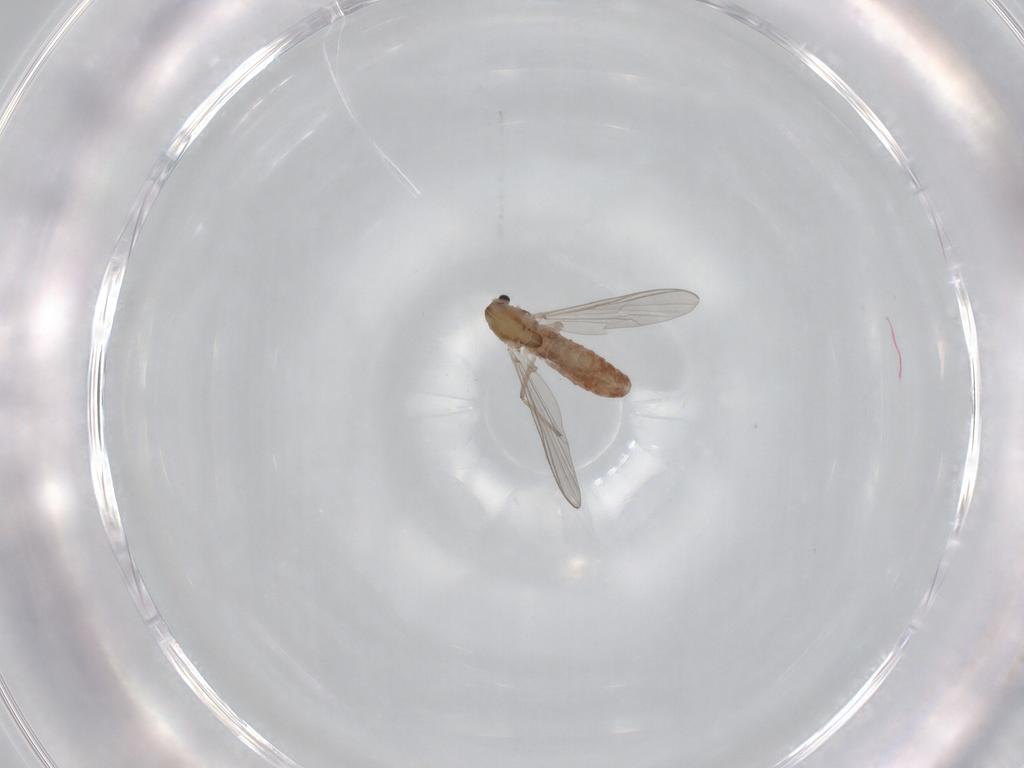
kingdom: Animalia
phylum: Arthropoda
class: Insecta
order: Diptera
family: Chironomidae
